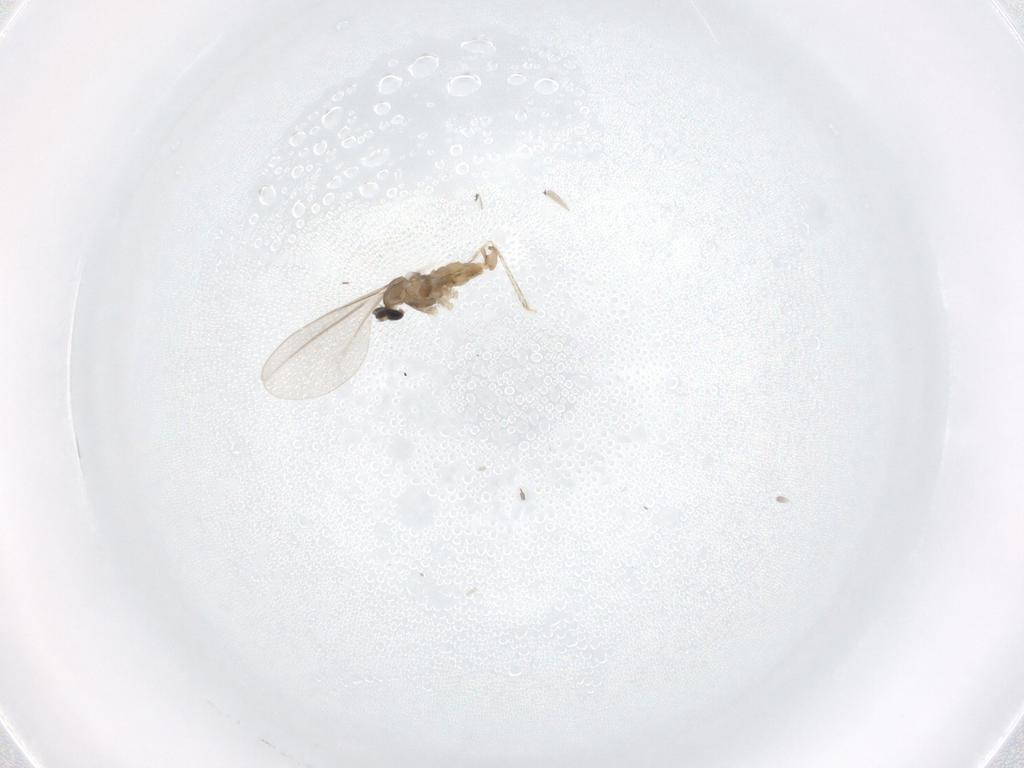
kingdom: Animalia
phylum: Arthropoda
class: Insecta
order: Diptera
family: Cecidomyiidae
